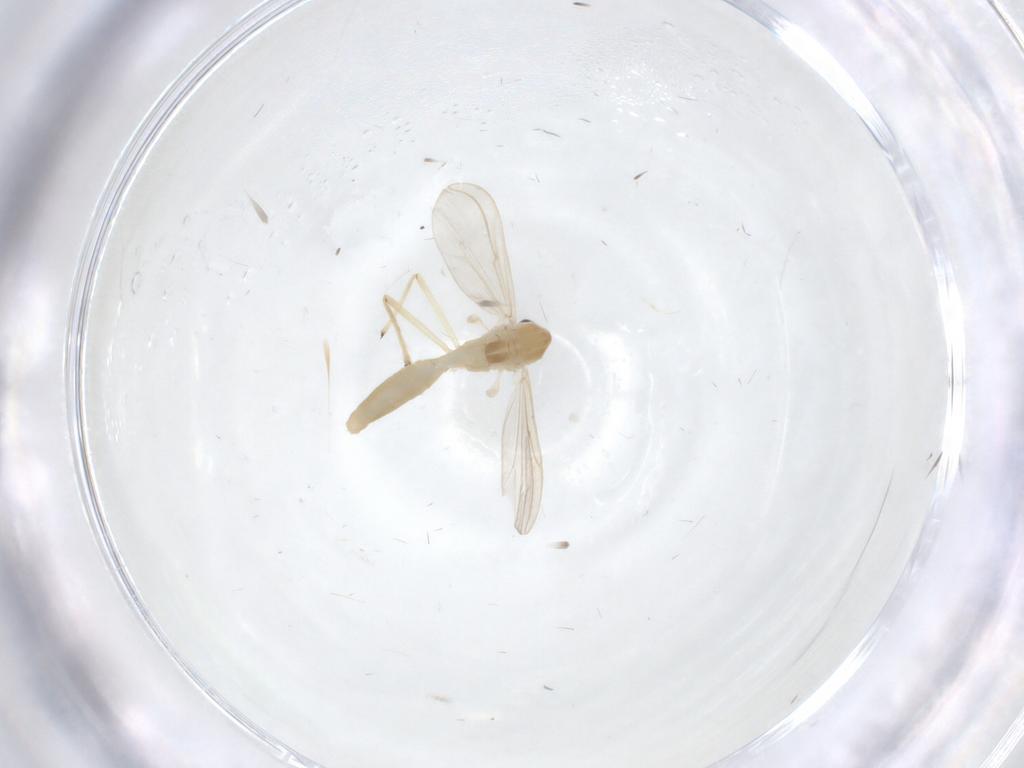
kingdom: Animalia
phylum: Arthropoda
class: Insecta
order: Diptera
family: Chironomidae
